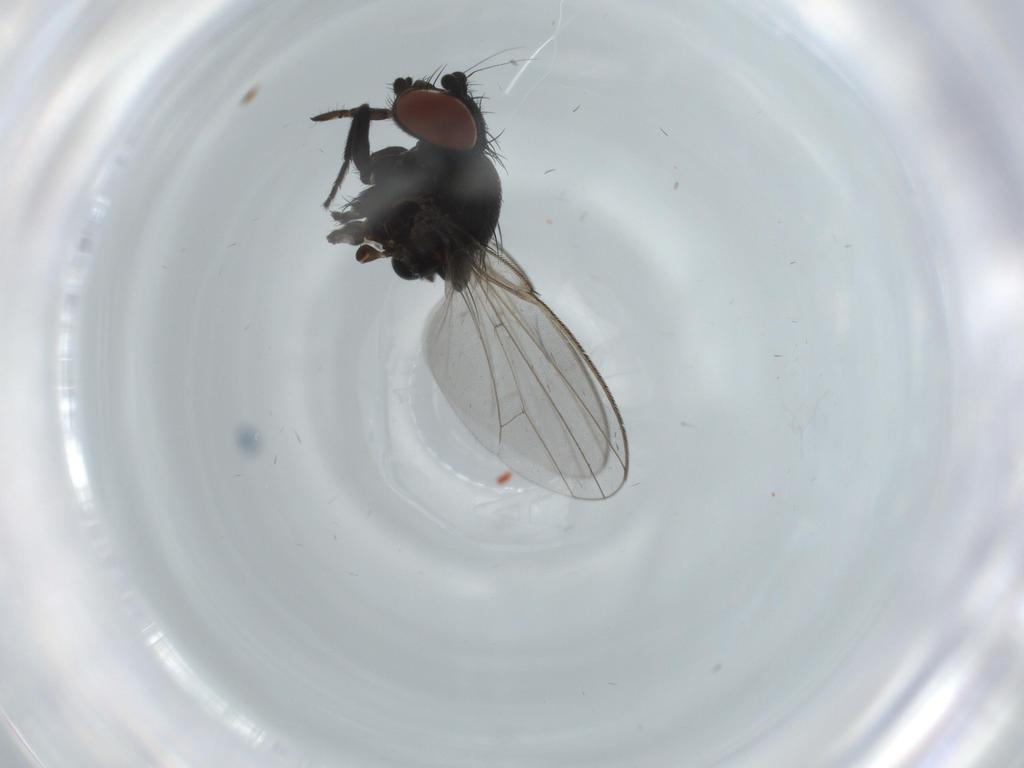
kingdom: Animalia
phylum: Arthropoda
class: Insecta
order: Diptera
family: Milichiidae
